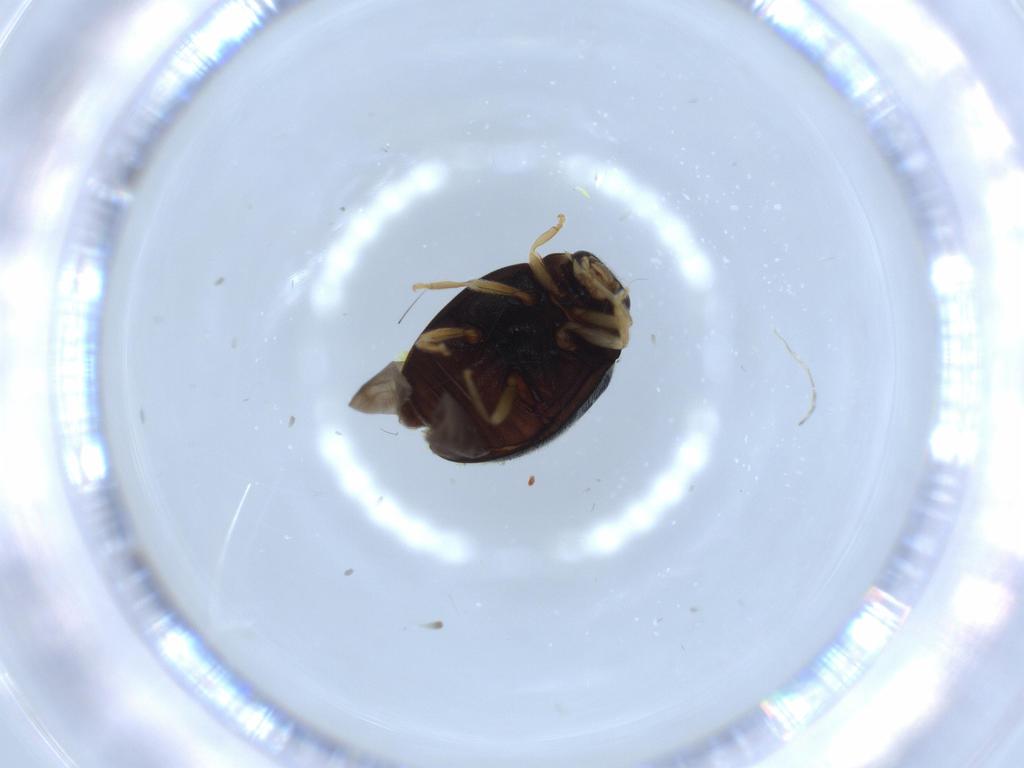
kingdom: Animalia
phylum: Arthropoda
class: Insecta
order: Coleoptera
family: Coccinellidae
